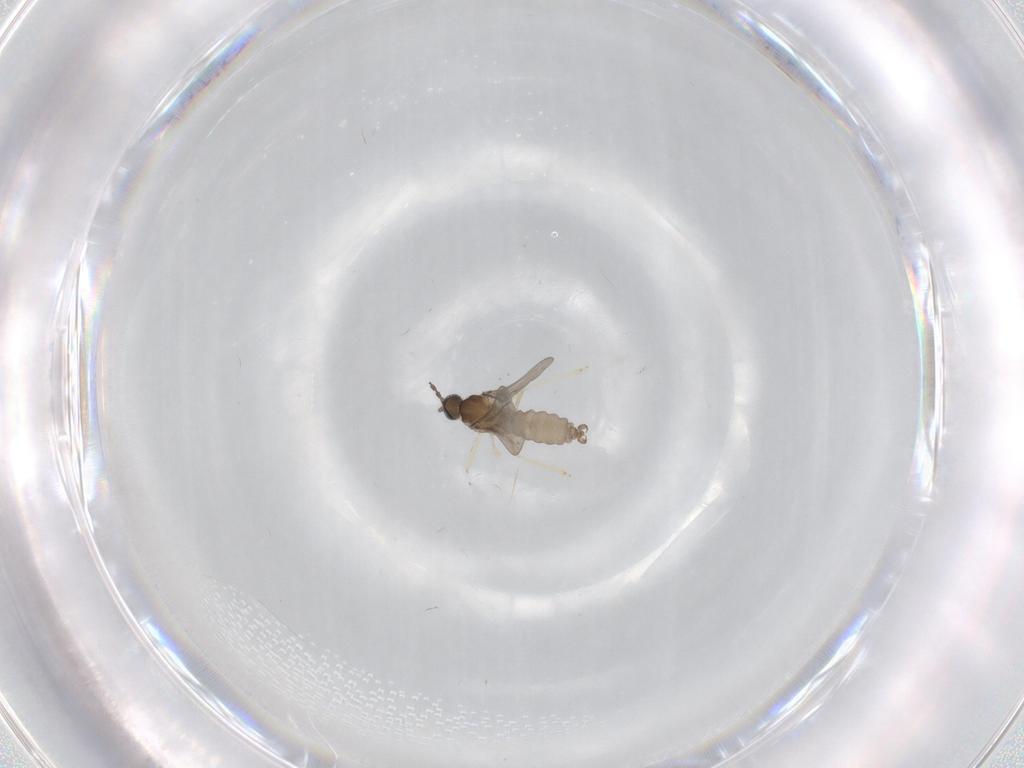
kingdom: Animalia
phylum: Arthropoda
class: Insecta
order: Diptera
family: Cecidomyiidae
